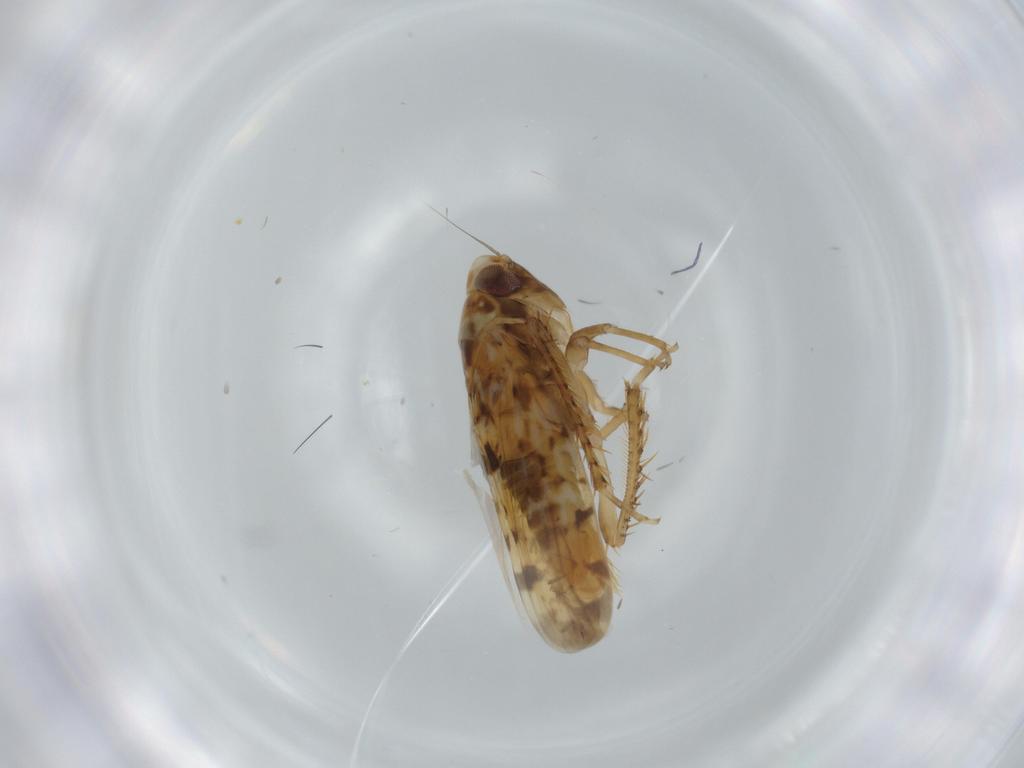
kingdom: Animalia
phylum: Arthropoda
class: Insecta
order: Hemiptera
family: Cicadellidae
